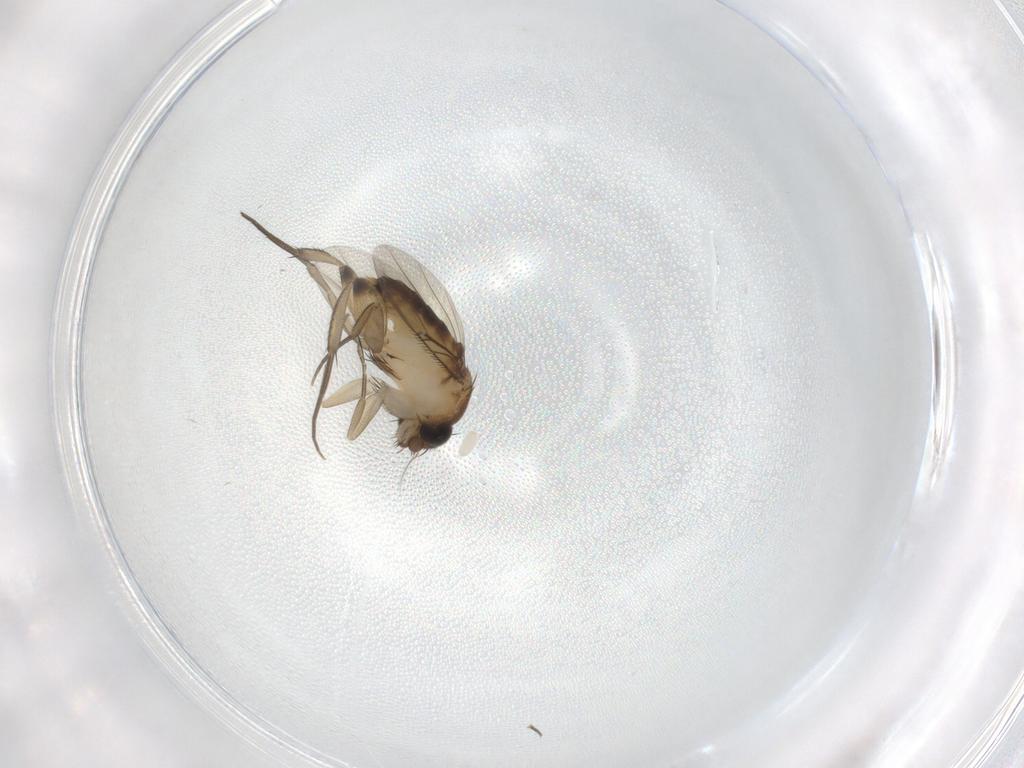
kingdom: Animalia
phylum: Arthropoda
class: Insecta
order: Diptera
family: Phoridae
